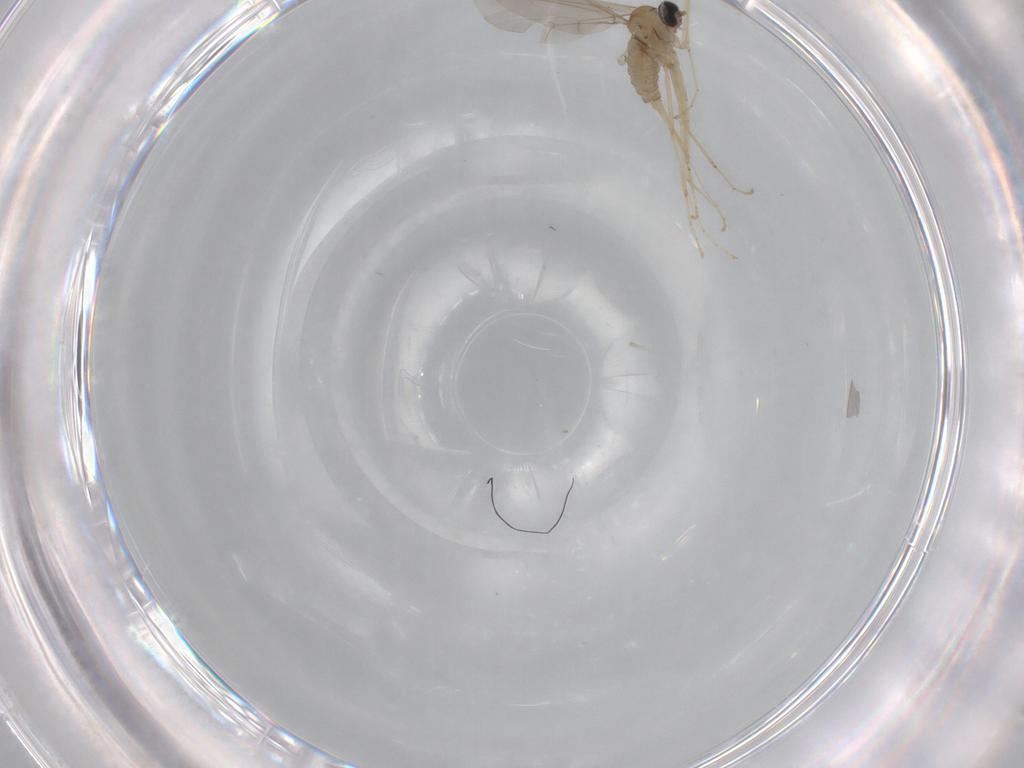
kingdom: Animalia
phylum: Arthropoda
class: Insecta
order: Diptera
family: Cecidomyiidae
